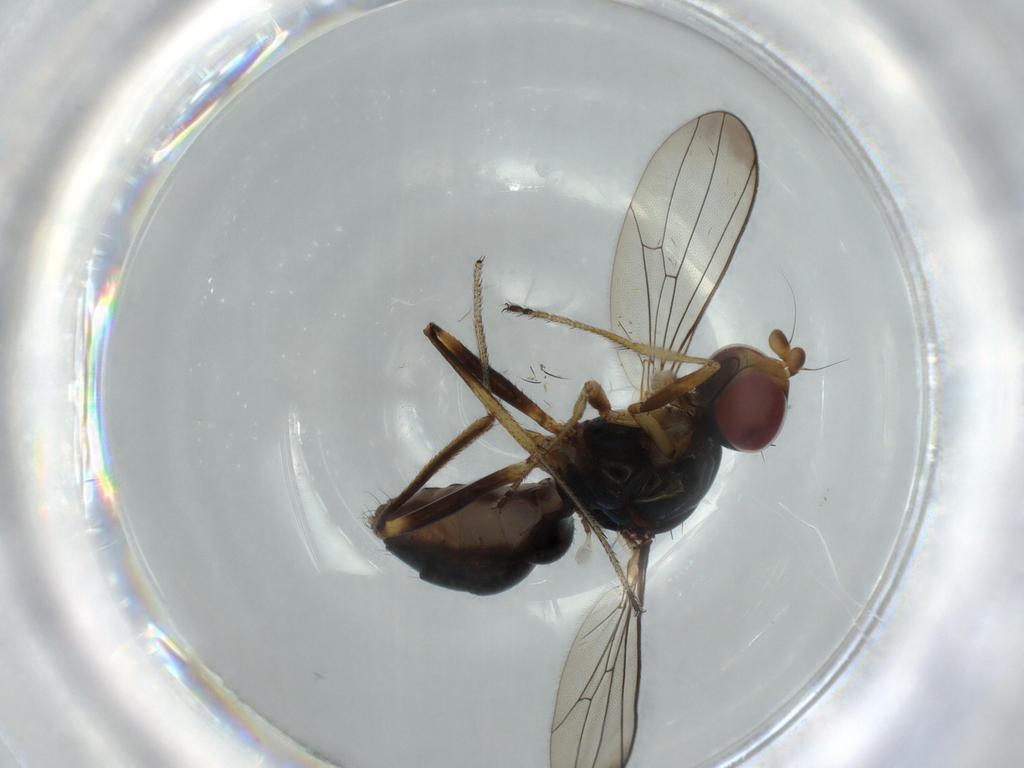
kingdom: Animalia
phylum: Arthropoda
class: Insecta
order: Diptera
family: Sepsidae
